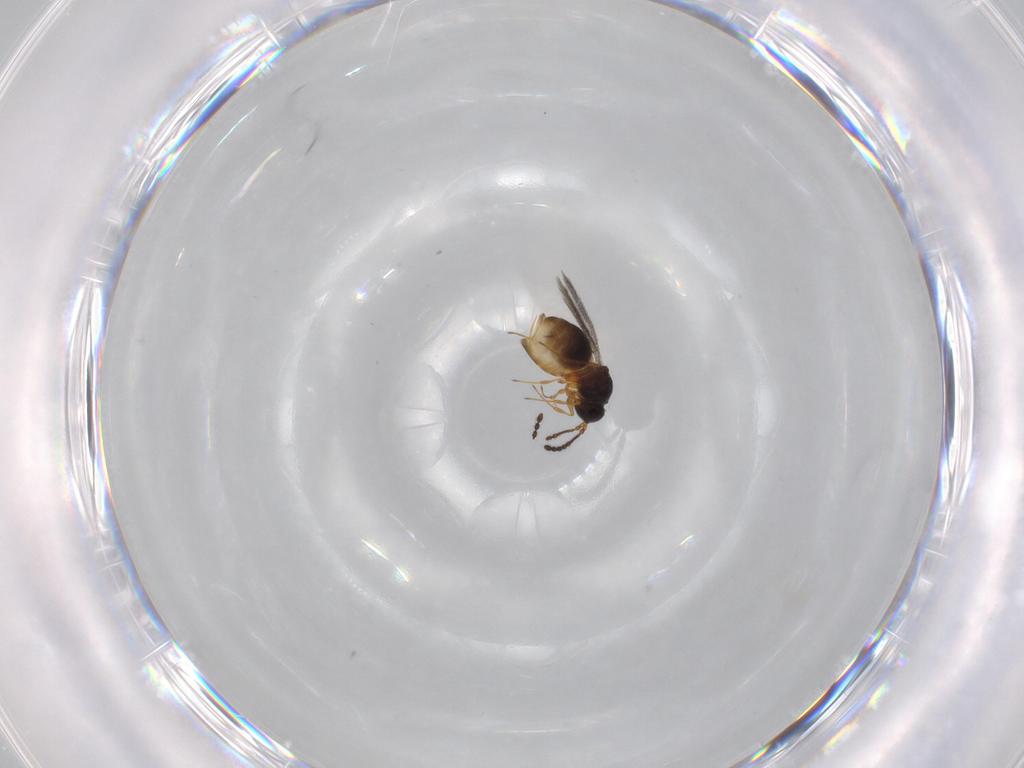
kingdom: Animalia
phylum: Arthropoda
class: Insecta
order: Hymenoptera
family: Figitidae
